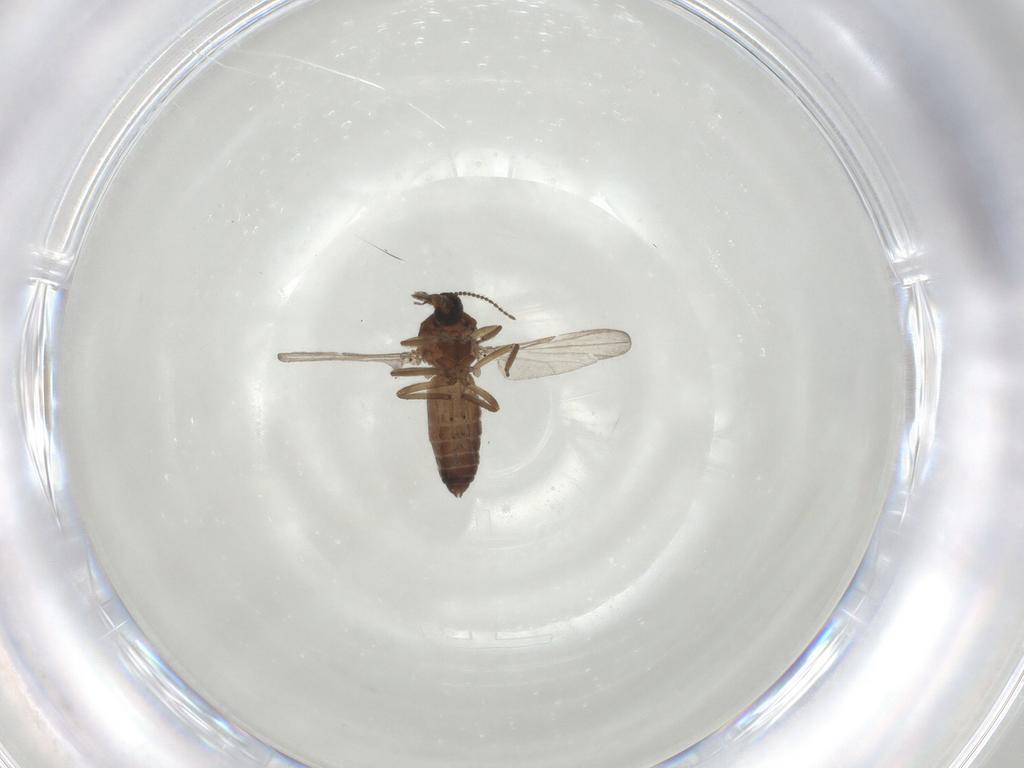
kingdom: Animalia
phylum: Arthropoda
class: Insecta
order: Diptera
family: Ceratopogonidae
